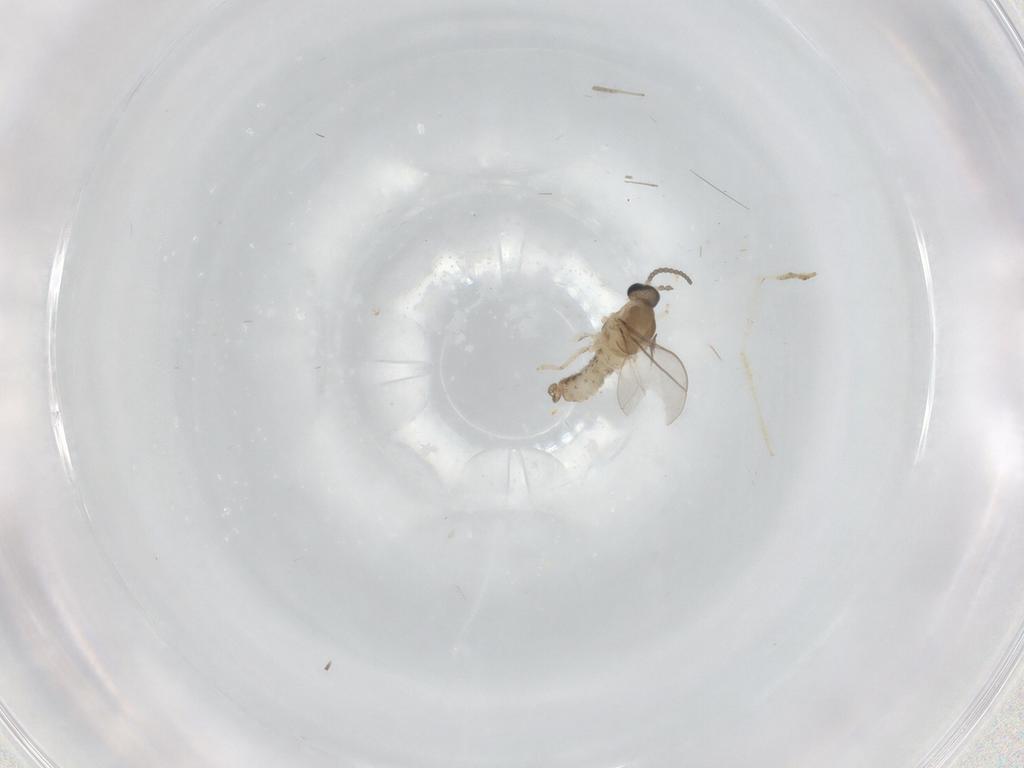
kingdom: Animalia
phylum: Arthropoda
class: Insecta
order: Diptera
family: Chironomidae
